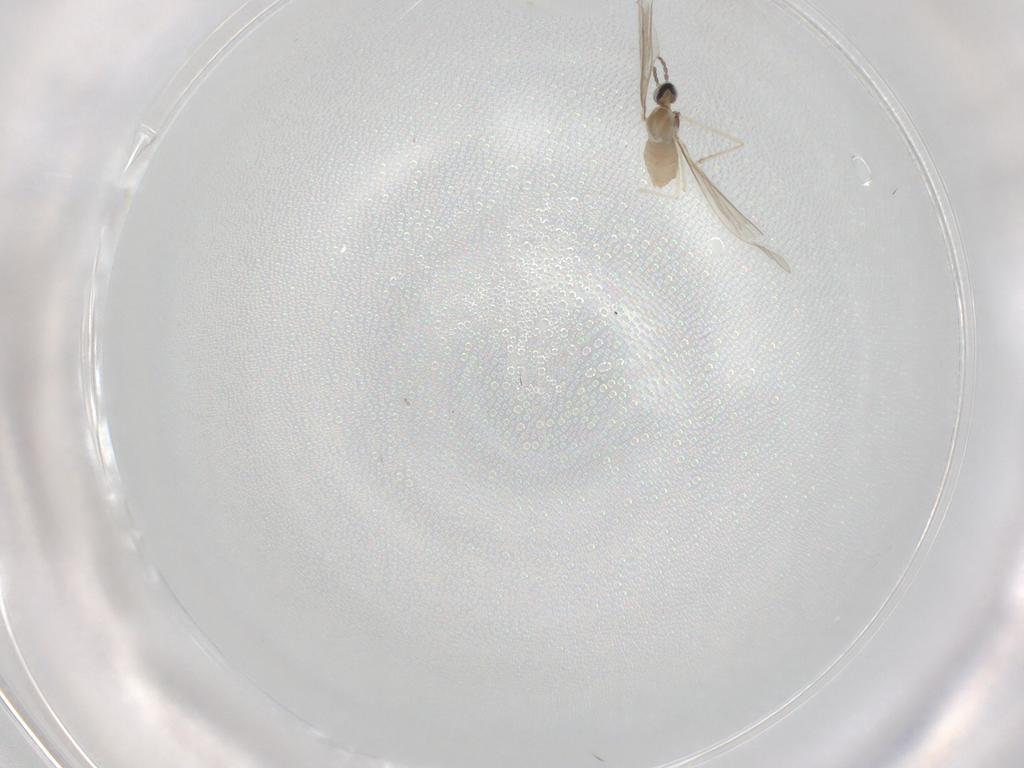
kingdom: Animalia
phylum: Arthropoda
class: Insecta
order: Diptera
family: Cecidomyiidae
